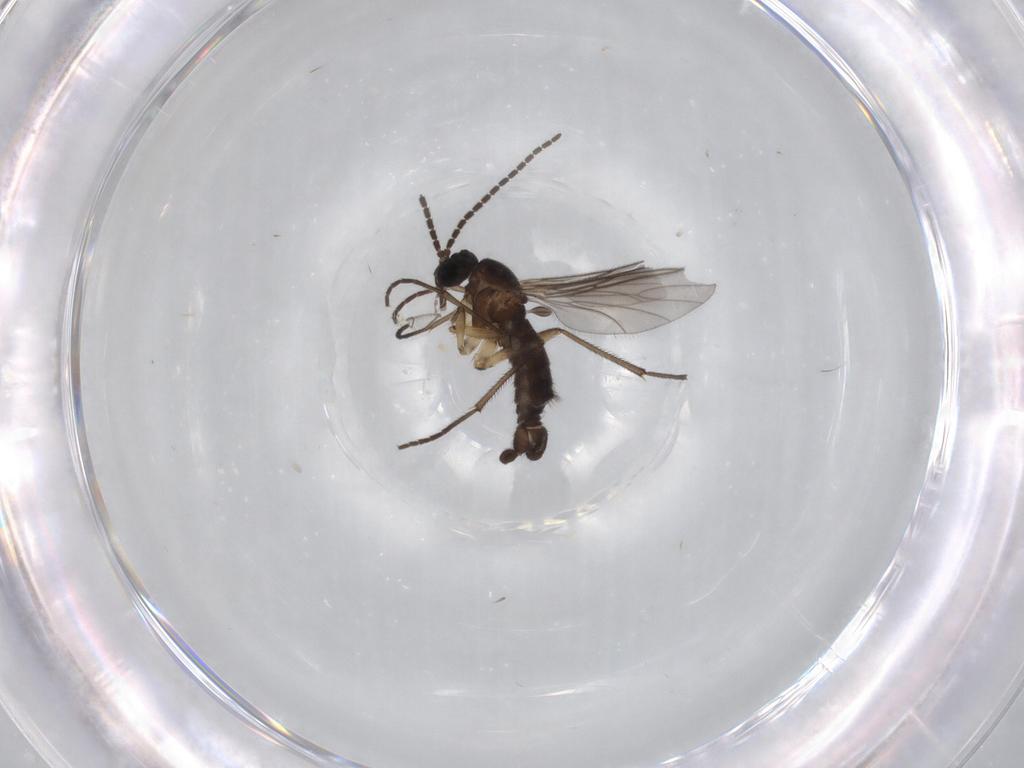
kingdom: Animalia
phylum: Arthropoda
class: Insecta
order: Diptera
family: Sciaridae
